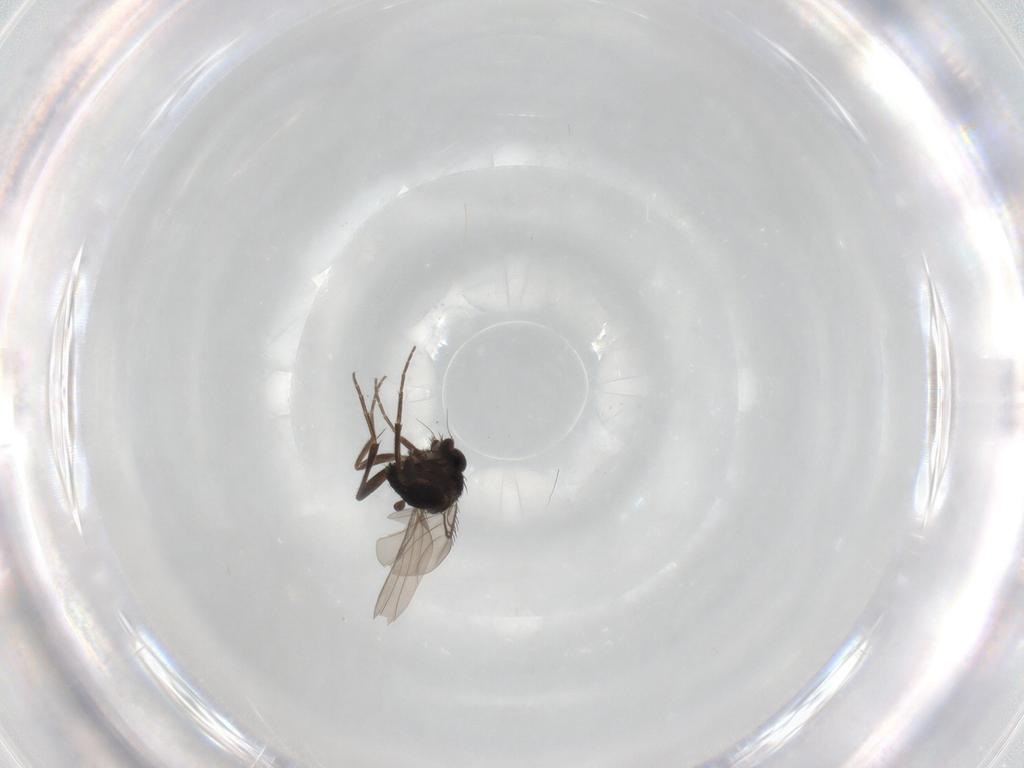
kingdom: Animalia
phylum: Arthropoda
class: Insecta
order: Diptera
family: Phoridae
